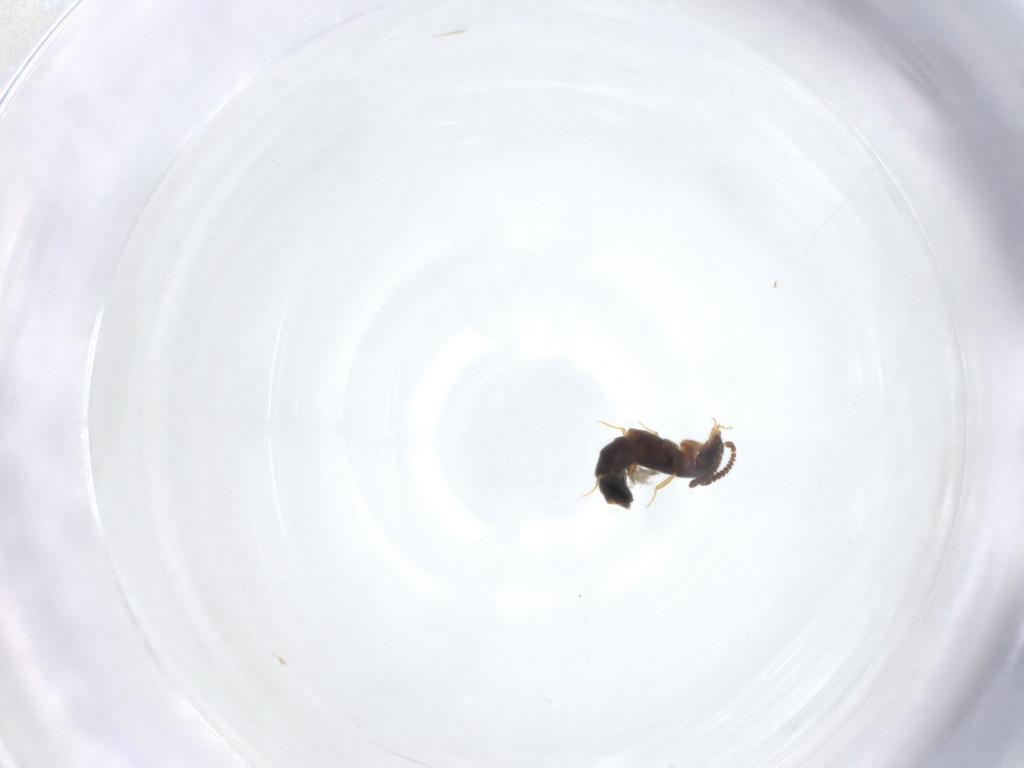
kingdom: Animalia
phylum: Arthropoda
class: Insecta
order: Coleoptera
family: Staphylinidae
